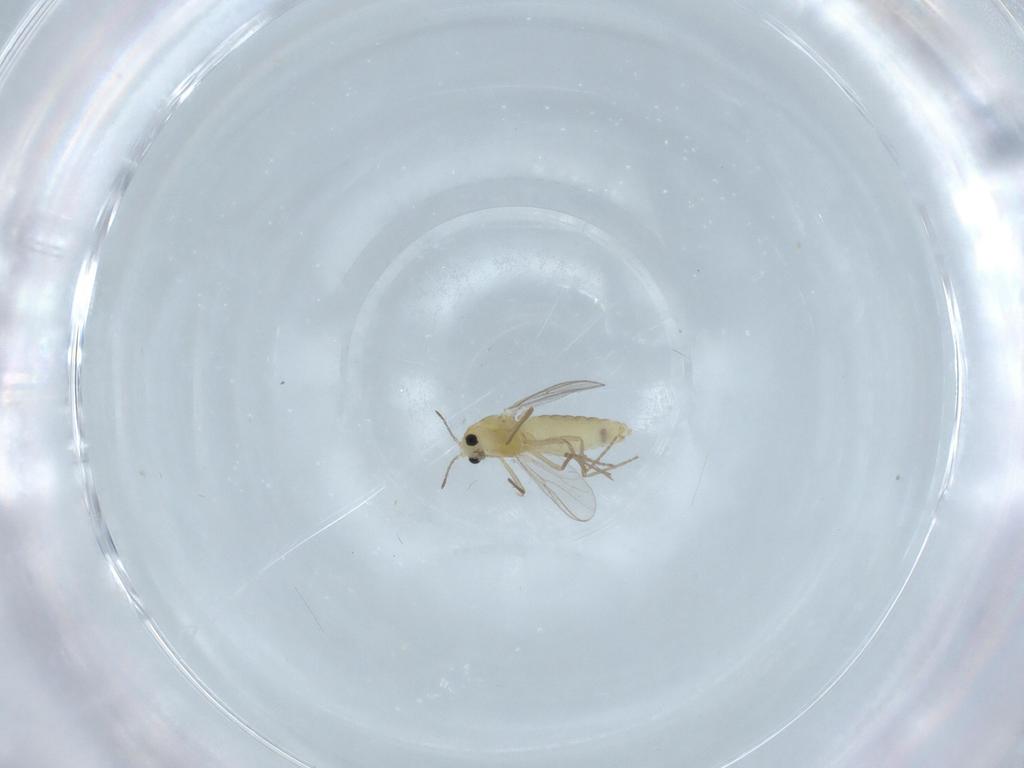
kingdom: Animalia
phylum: Arthropoda
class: Insecta
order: Diptera
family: Chironomidae
